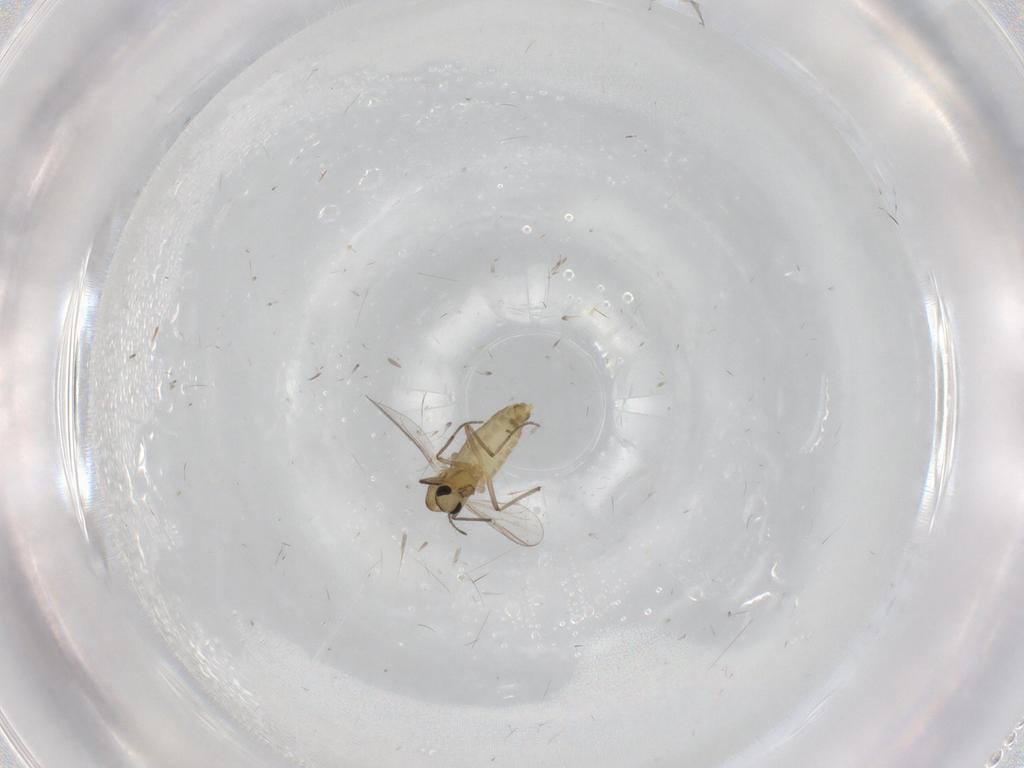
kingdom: Animalia
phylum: Arthropoda
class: Insecta
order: Diptera
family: Chironomidae
